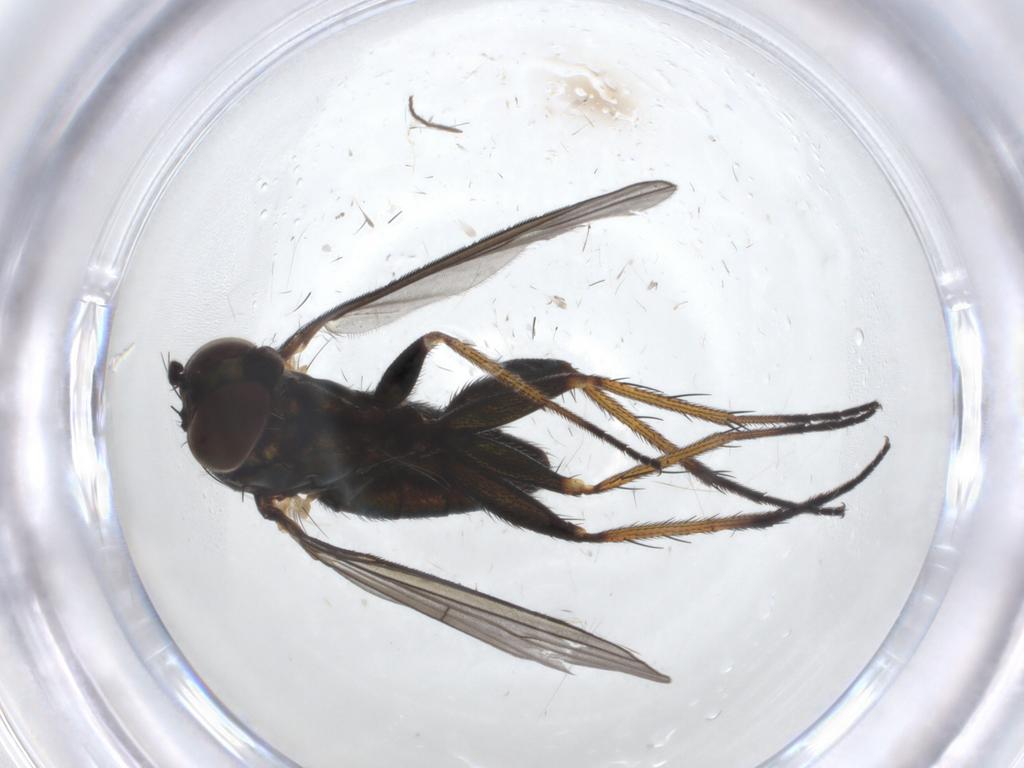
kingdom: Animalia
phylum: Arthropoda
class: Insecta
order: Diptera
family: Dolichopodidae
